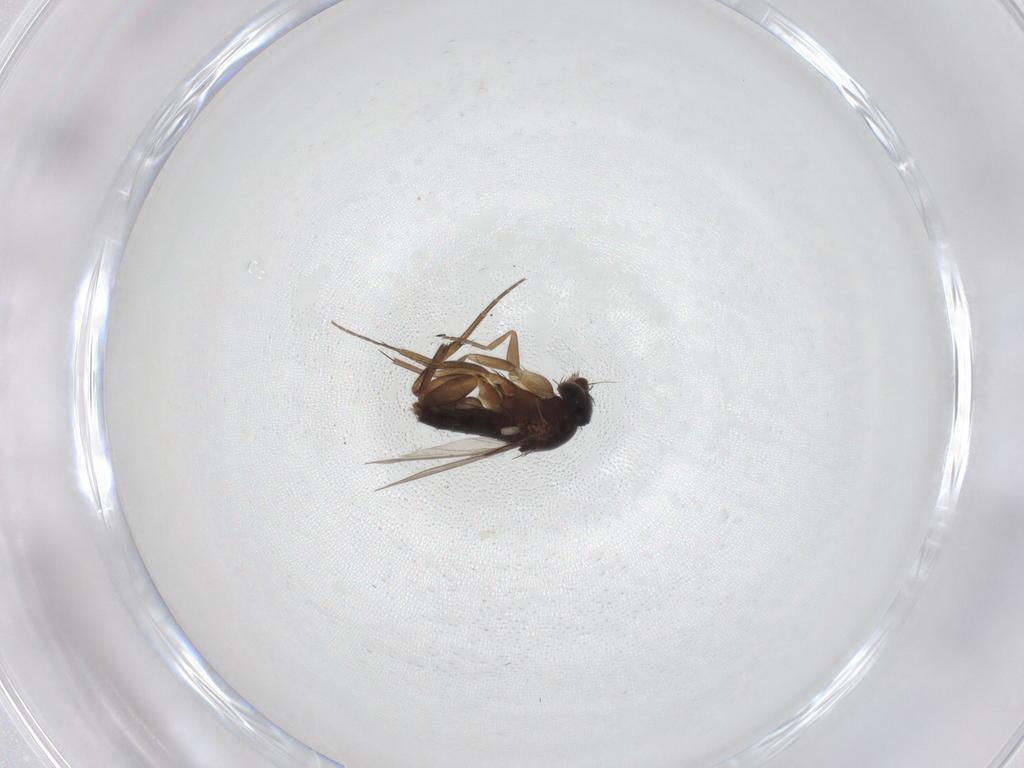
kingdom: Animalia
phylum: Arthropoda
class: Insecta
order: Diptera
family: Phoridae
